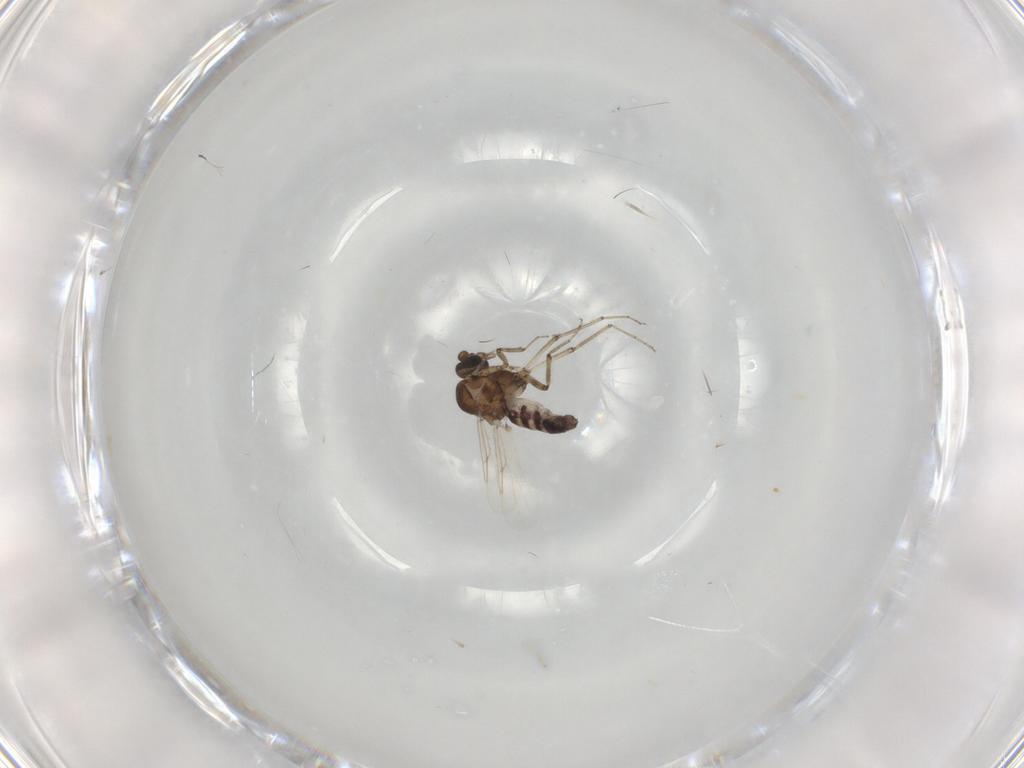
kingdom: Animalia
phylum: Arthropoda
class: Insecta
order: Diptera
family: Ceratopogonidae
